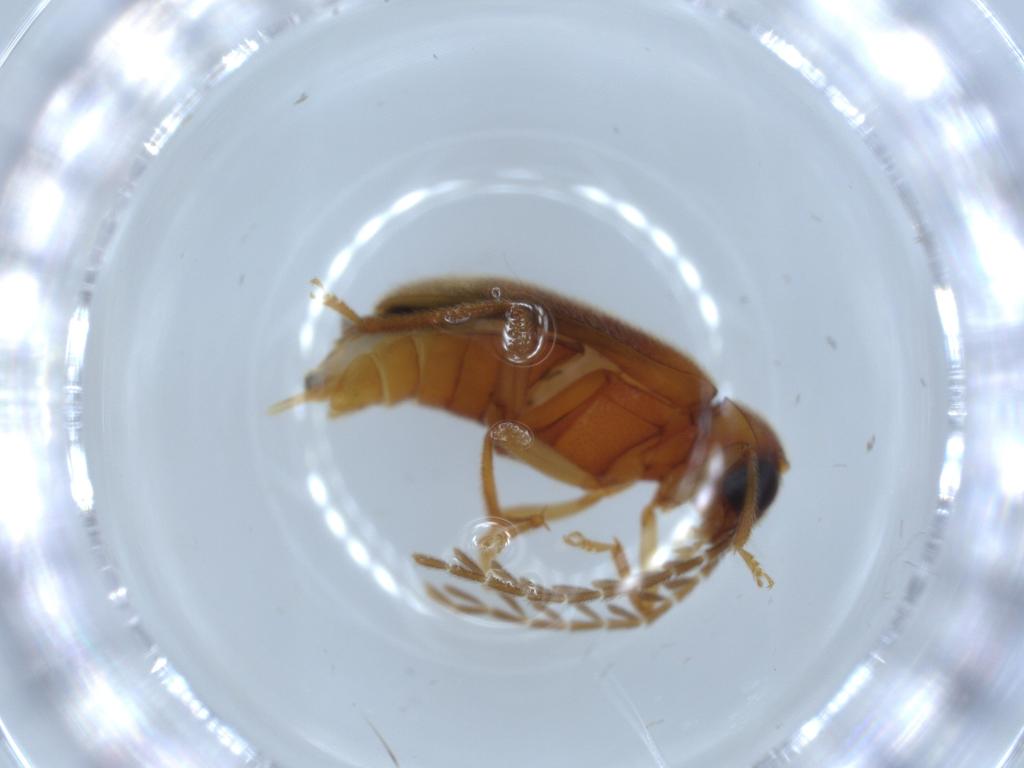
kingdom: Animalia
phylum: Arthropoda
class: Insecta
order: Coleoptera
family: Ptilodactylidae
